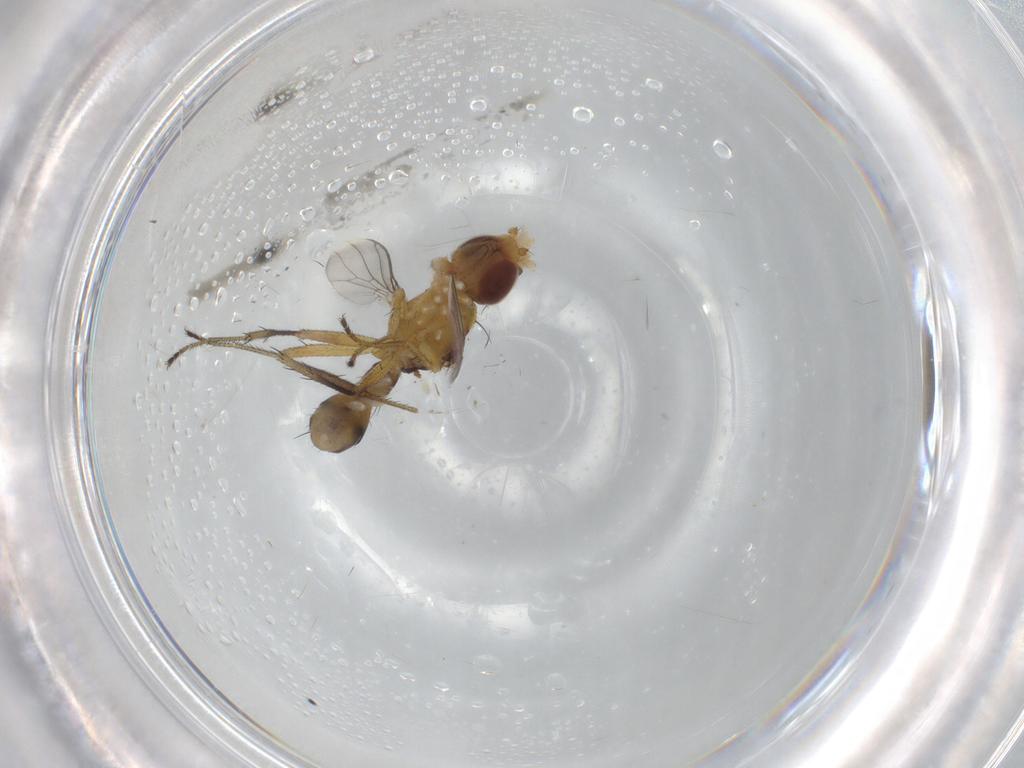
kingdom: Animalia
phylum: Arthropoda
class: Insecta
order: Diptera
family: Sepsidae
